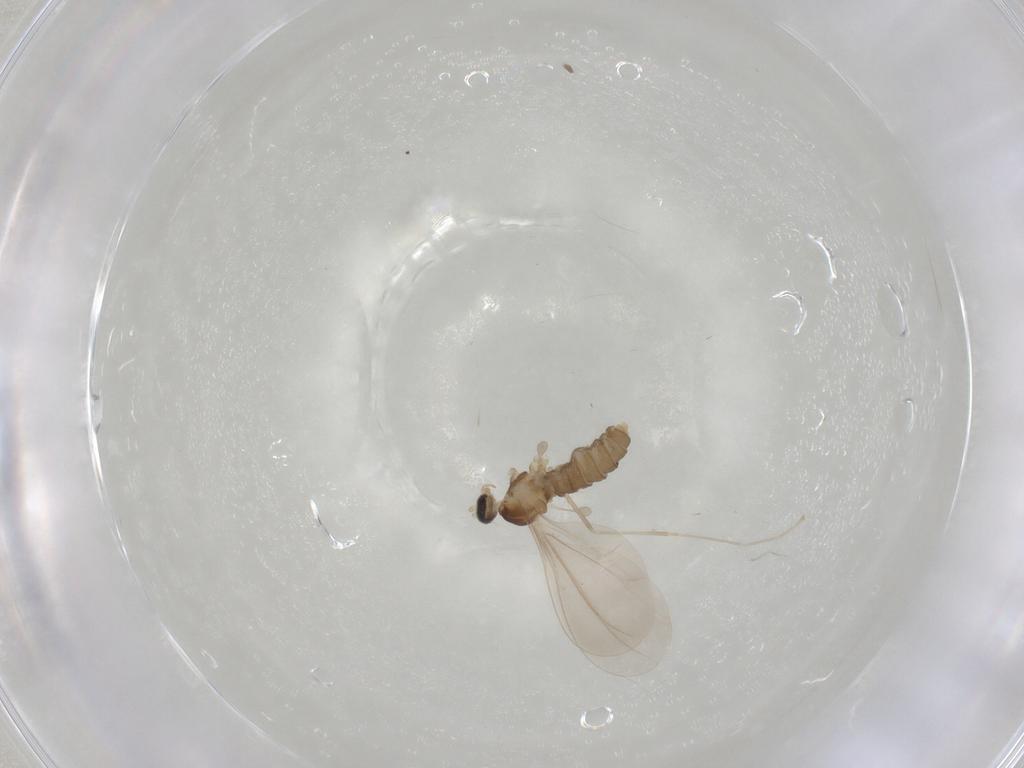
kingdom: Animalia
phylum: Arthropoda
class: Insecta
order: Diptera
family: Cecidomyiidae
